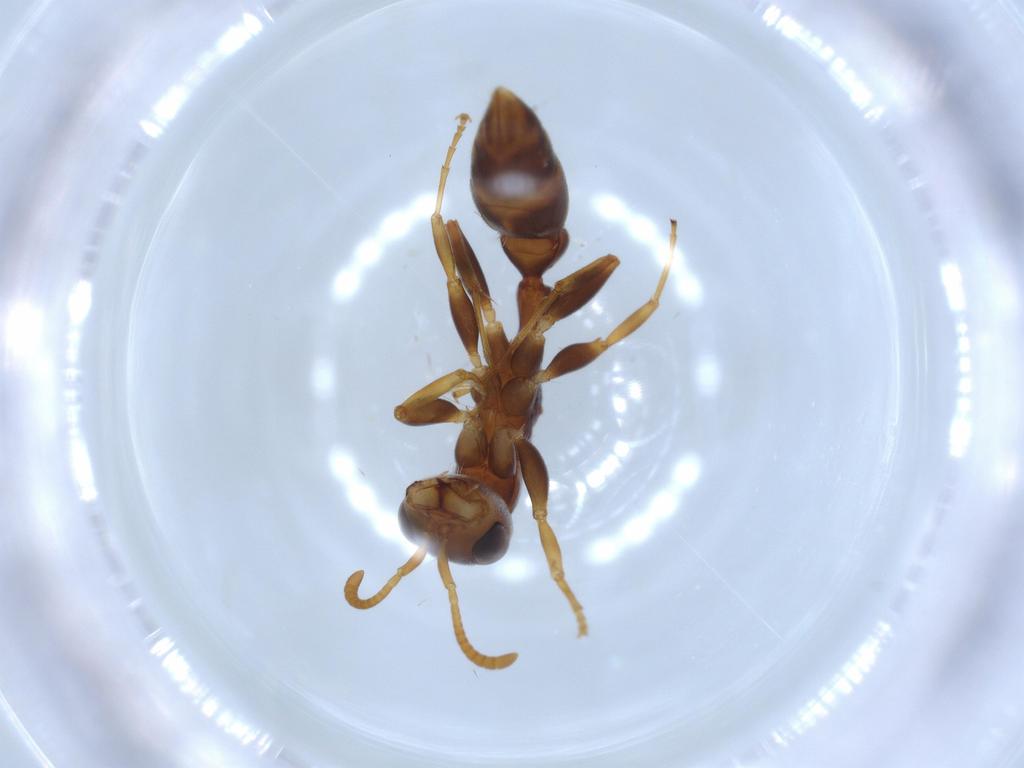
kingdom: Animalia
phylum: Arthropoda
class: Insecta
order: Hymenoptera
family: Formicidae
